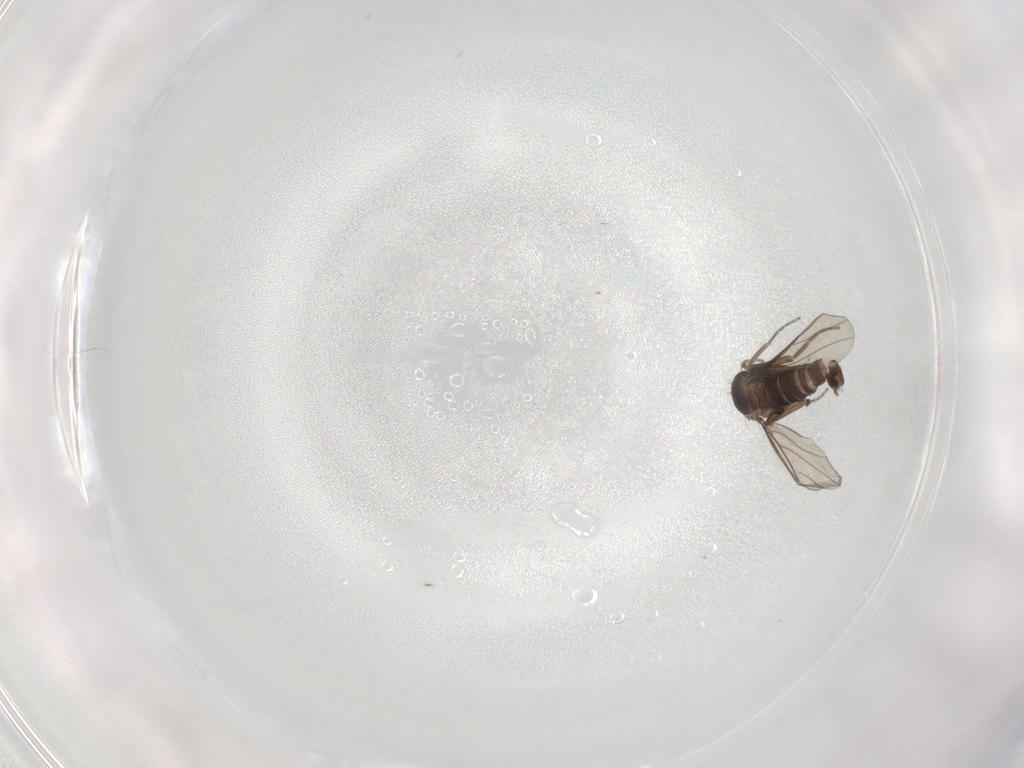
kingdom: Animalia
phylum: Arthropoda
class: Insecta
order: Diptera
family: Chironomidae
